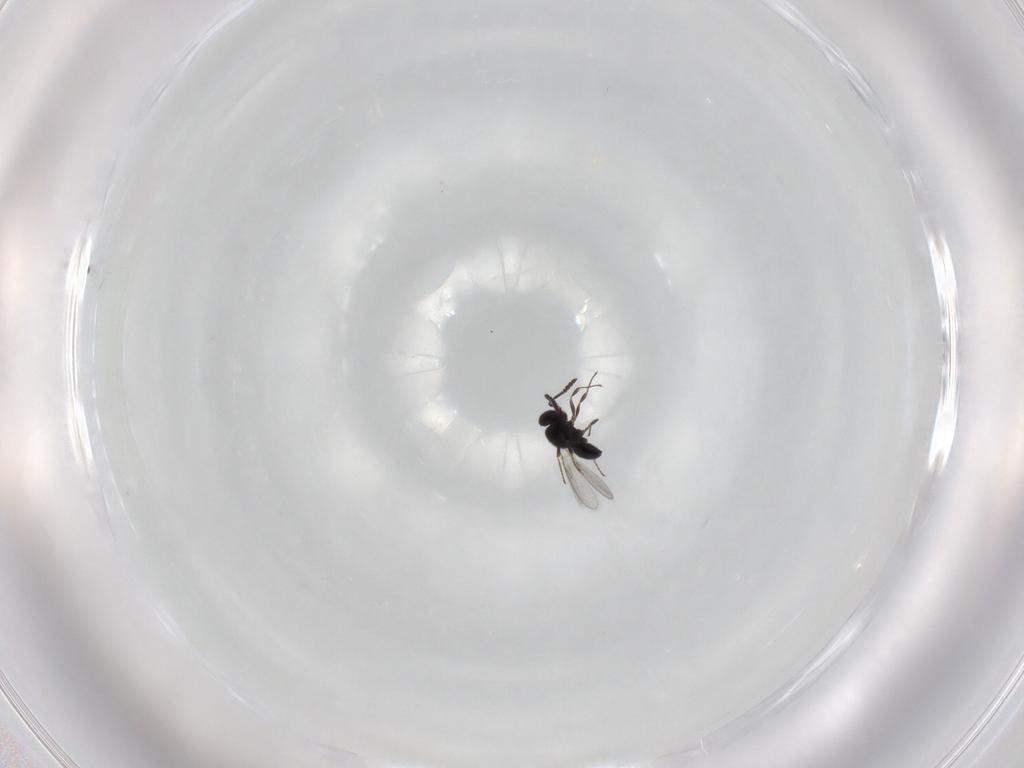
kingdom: Animalia
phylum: Arthropoda
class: Insecta
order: Hymenoptera
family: Scelionidae
